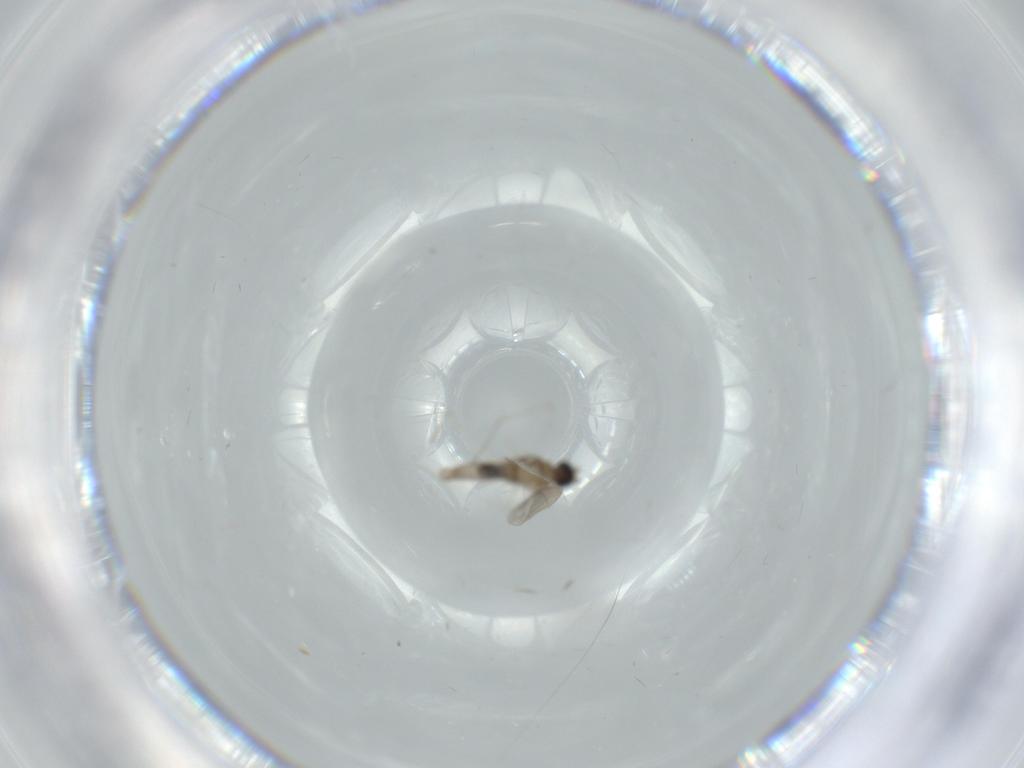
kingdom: Animalia
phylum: Arthropoda
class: Insecta
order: Diptera
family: Cecidomyiidae
